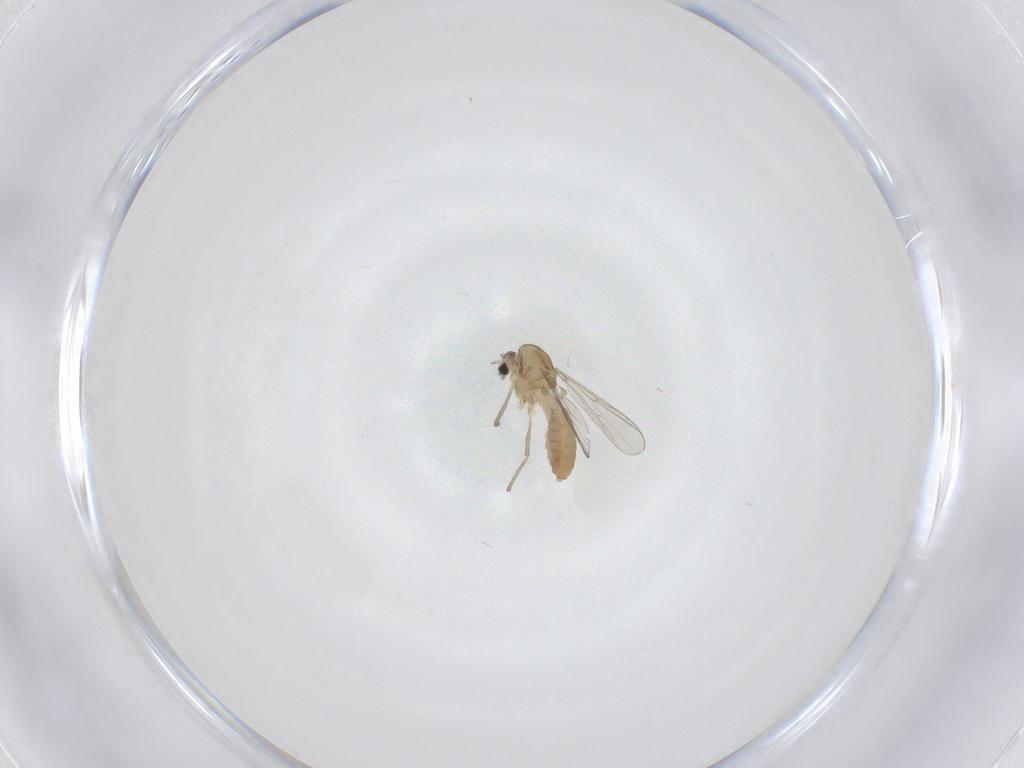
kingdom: Animalia
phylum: Arthropoda
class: Insecta
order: Diptera
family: Chironomidae
